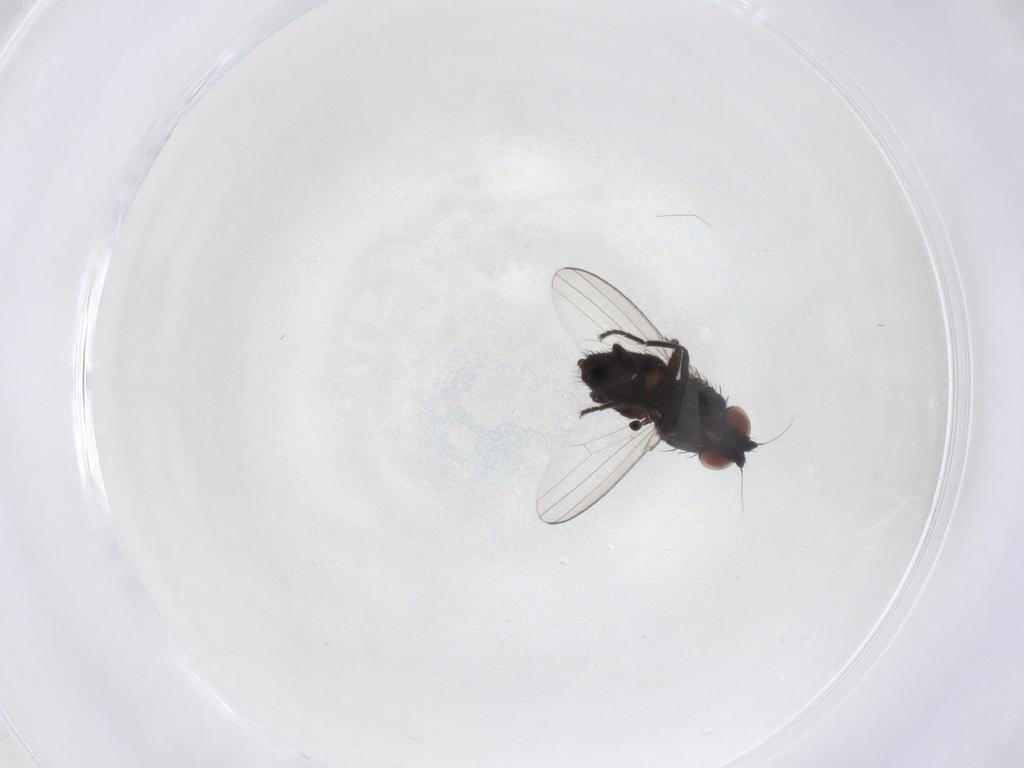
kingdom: Animalia
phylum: Arthropoda
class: Insecta
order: Diptera
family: Milichiidae
